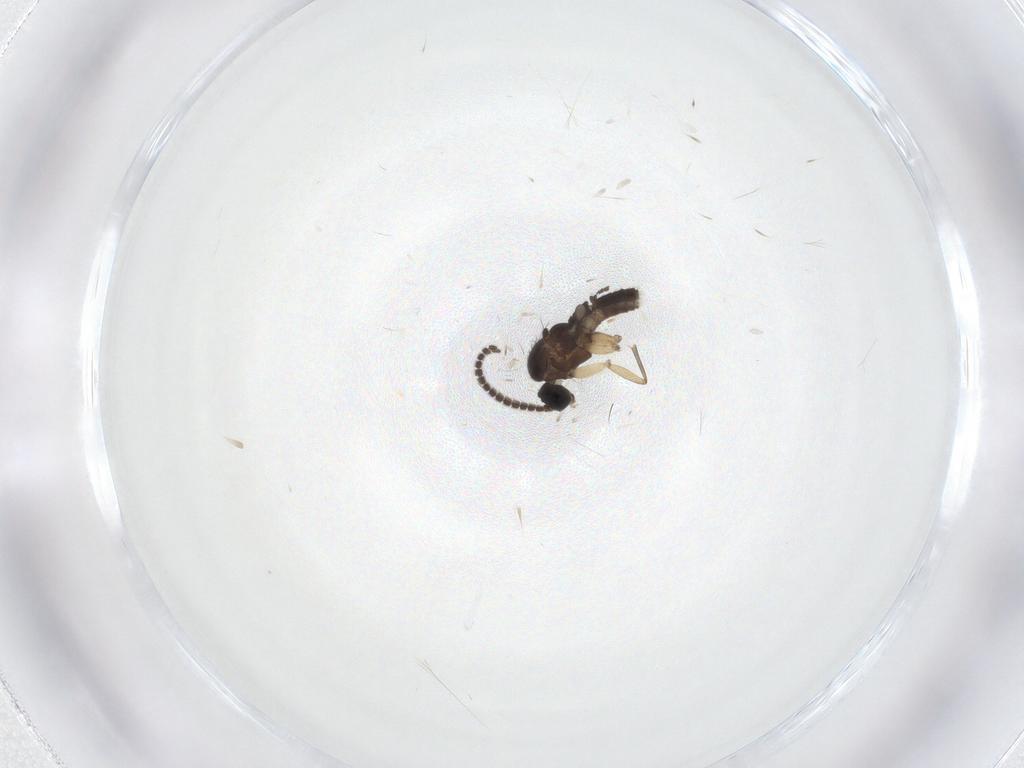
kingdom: Animalia
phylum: Arthropoda
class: Insecta
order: Diptera
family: Sciaridae
